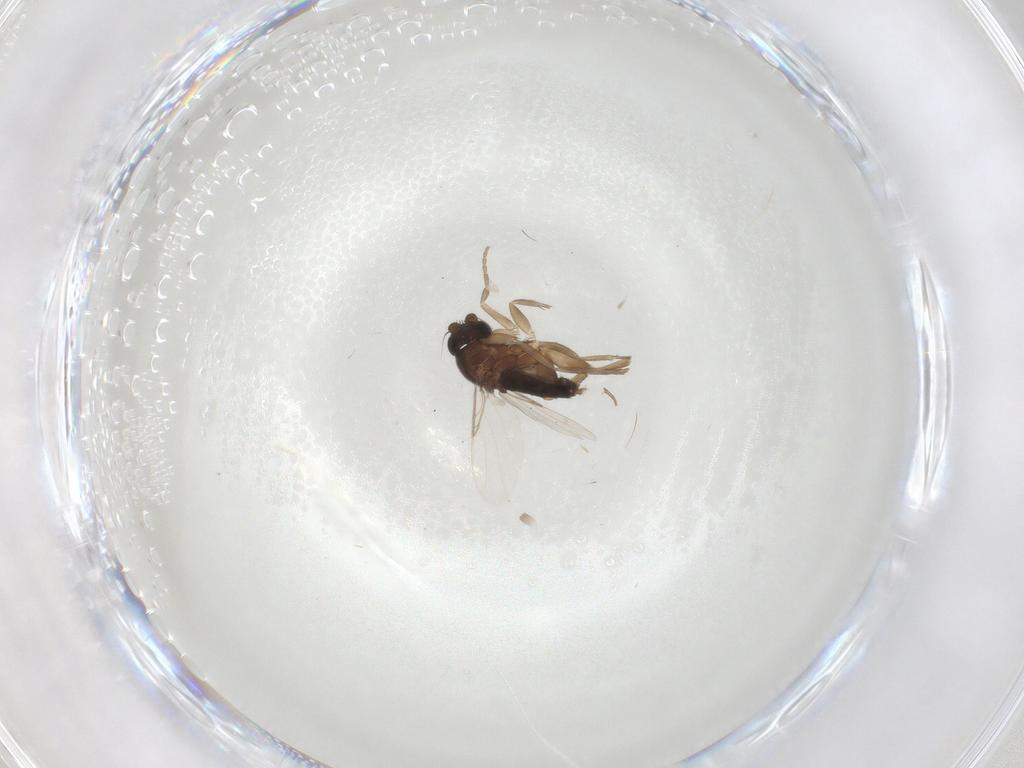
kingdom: Animalia
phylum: Arthropoda
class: Insecta
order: Diptera
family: Phoridae
